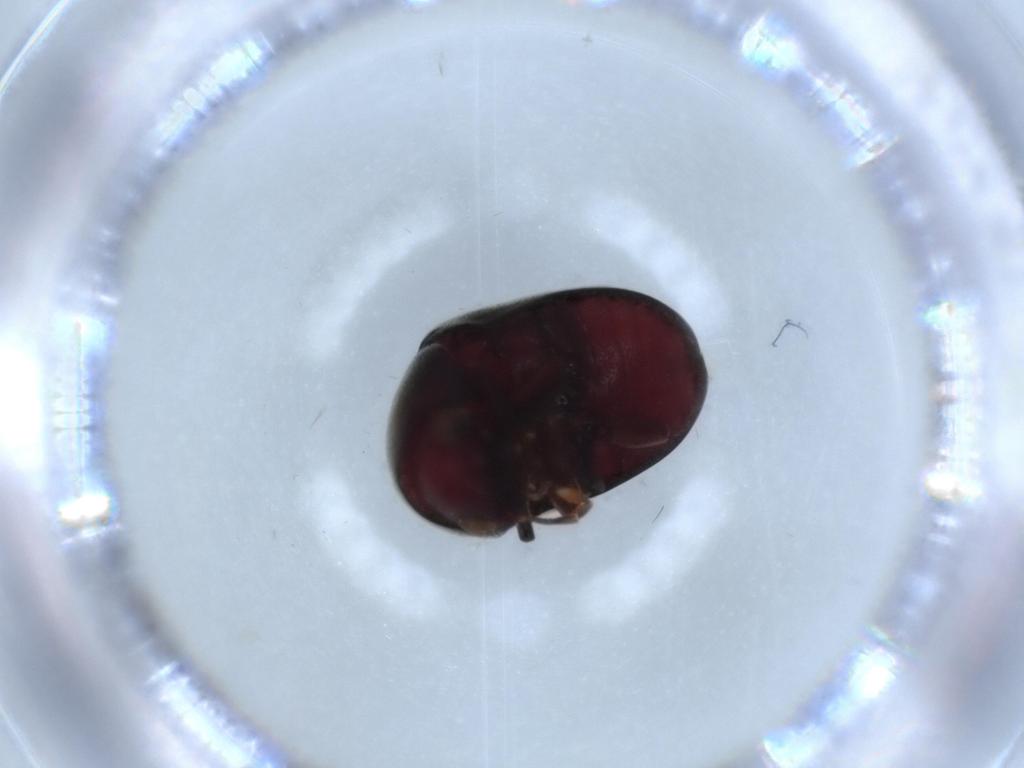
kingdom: Animalia
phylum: Arthropoda
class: Insecta
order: Coleoptera
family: Ptinidae
